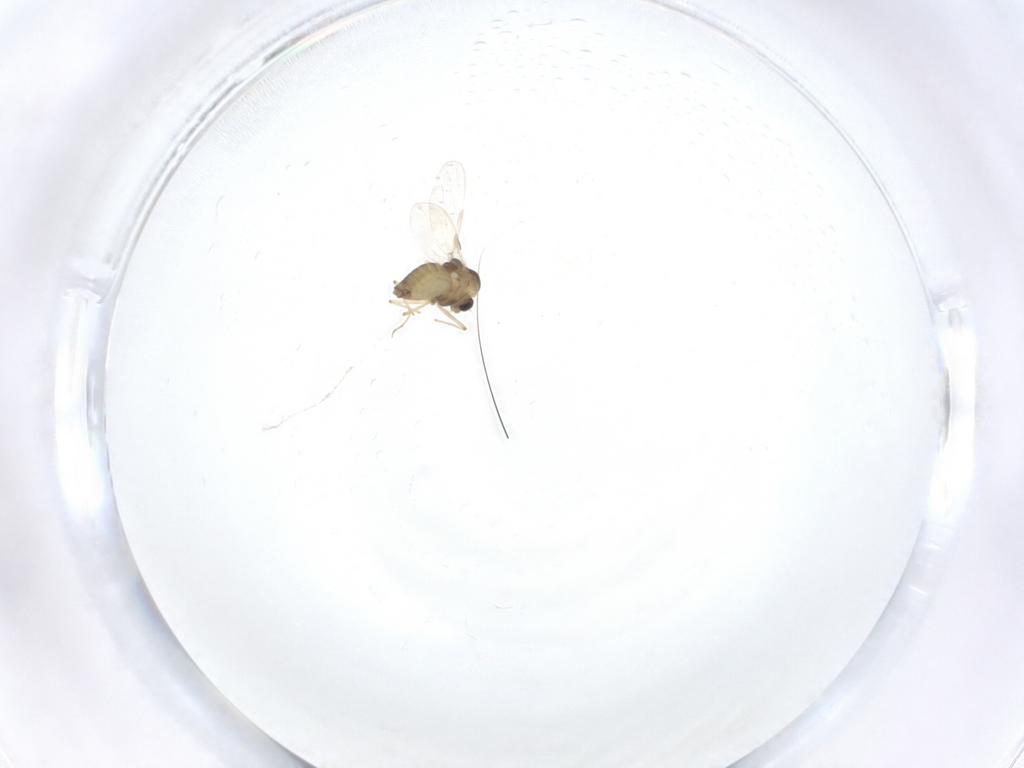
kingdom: Animalia
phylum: Arthropoda
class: Insecta
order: Diptera
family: Chironomidae
